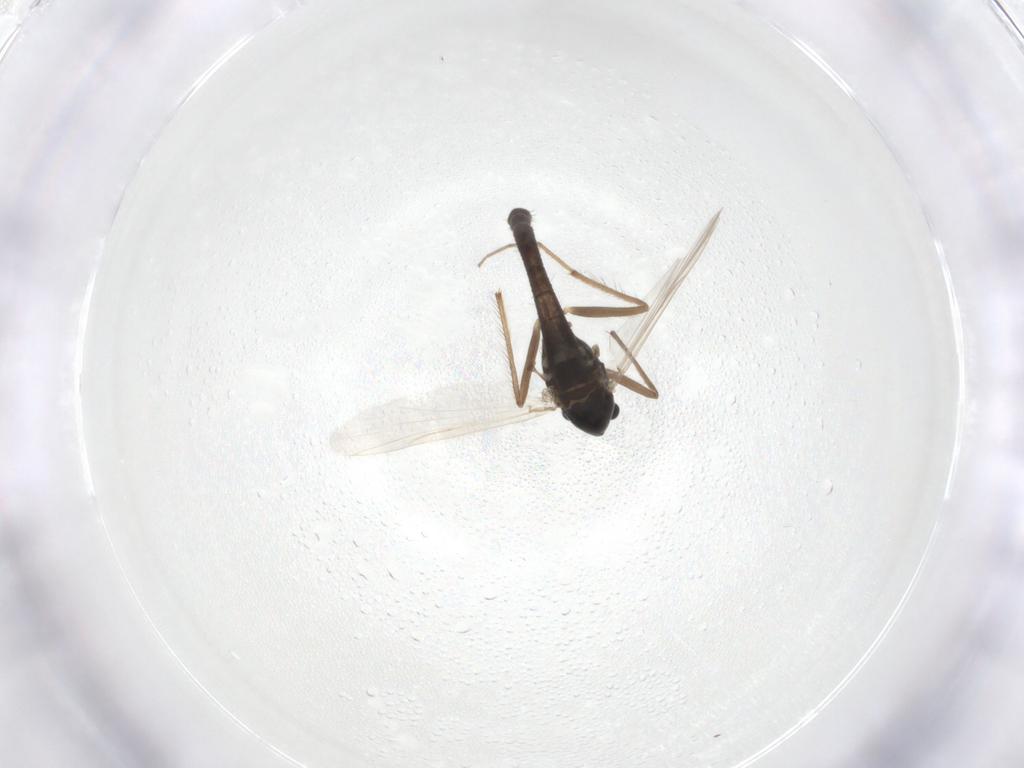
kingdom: Animalia
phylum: Arthropoda
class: Insecta
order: Diptera
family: Chironomidae
